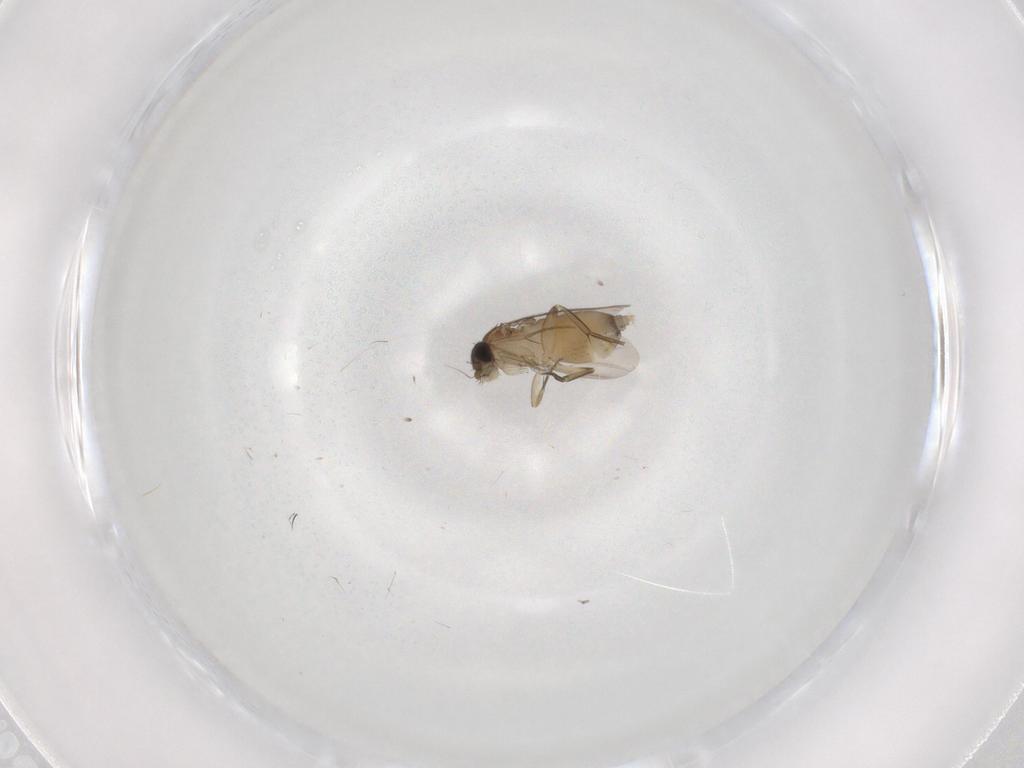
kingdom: Animalia
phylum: Arthropoda
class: Insecta
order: Diptera
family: Phoridae
